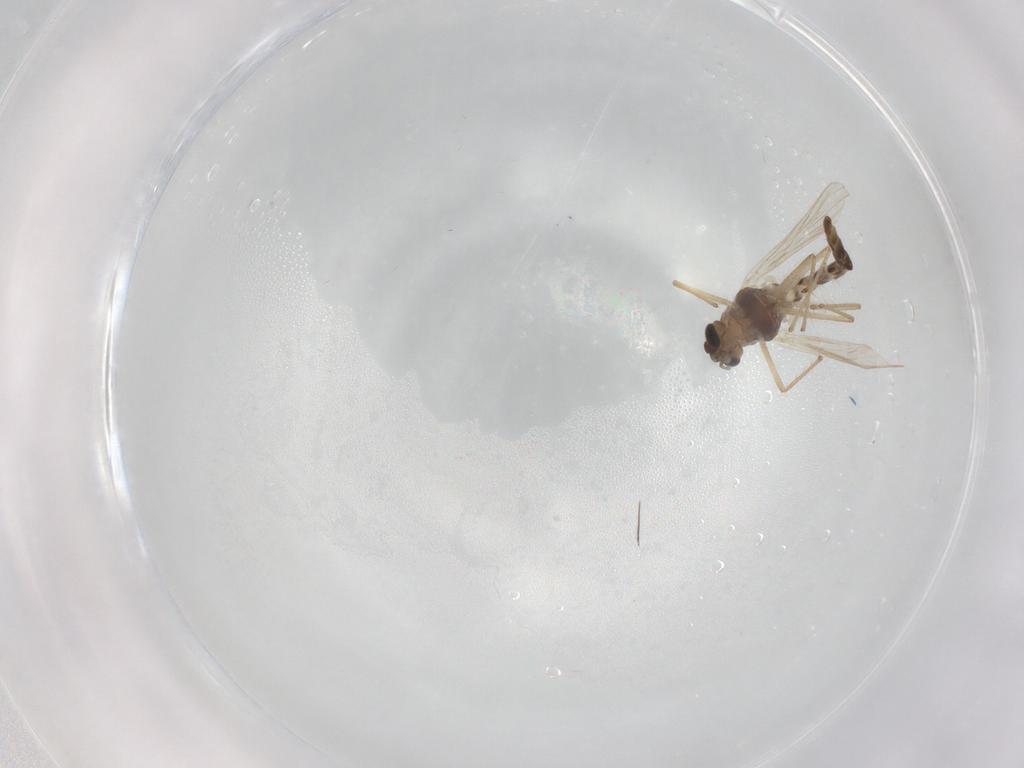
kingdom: Animalia
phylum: Arthropoda
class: Insecta
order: Diptera
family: Chironomidae
